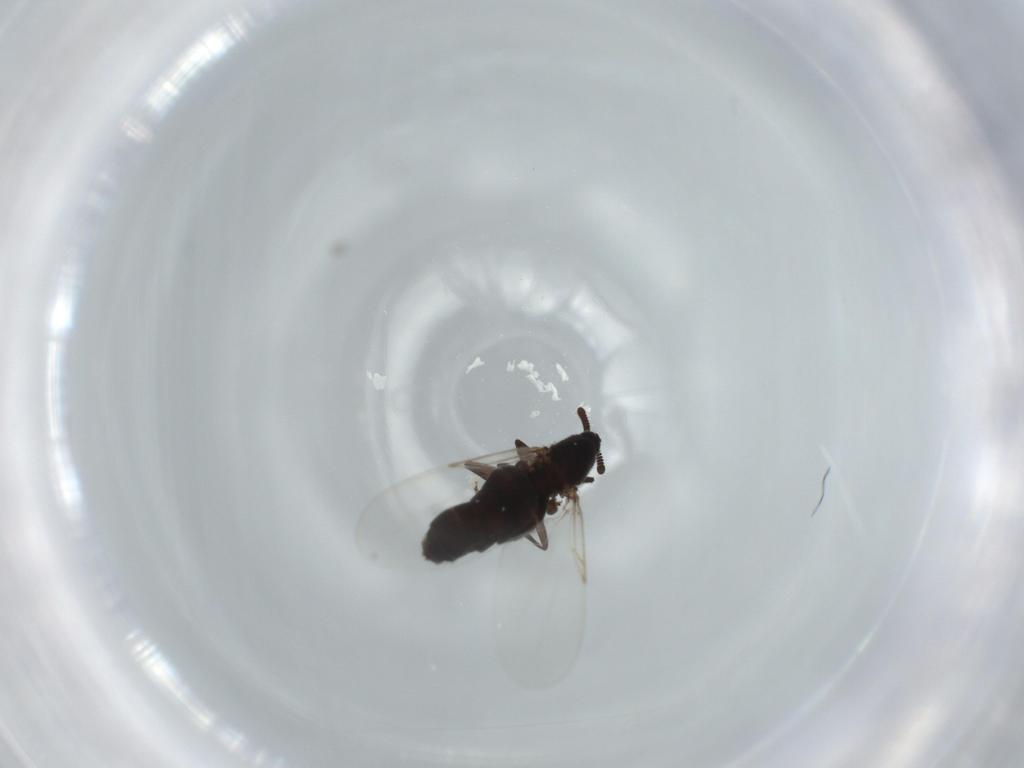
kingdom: Animalia
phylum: Arthropoda
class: Insecta
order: Diptera
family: Scatopsidae
